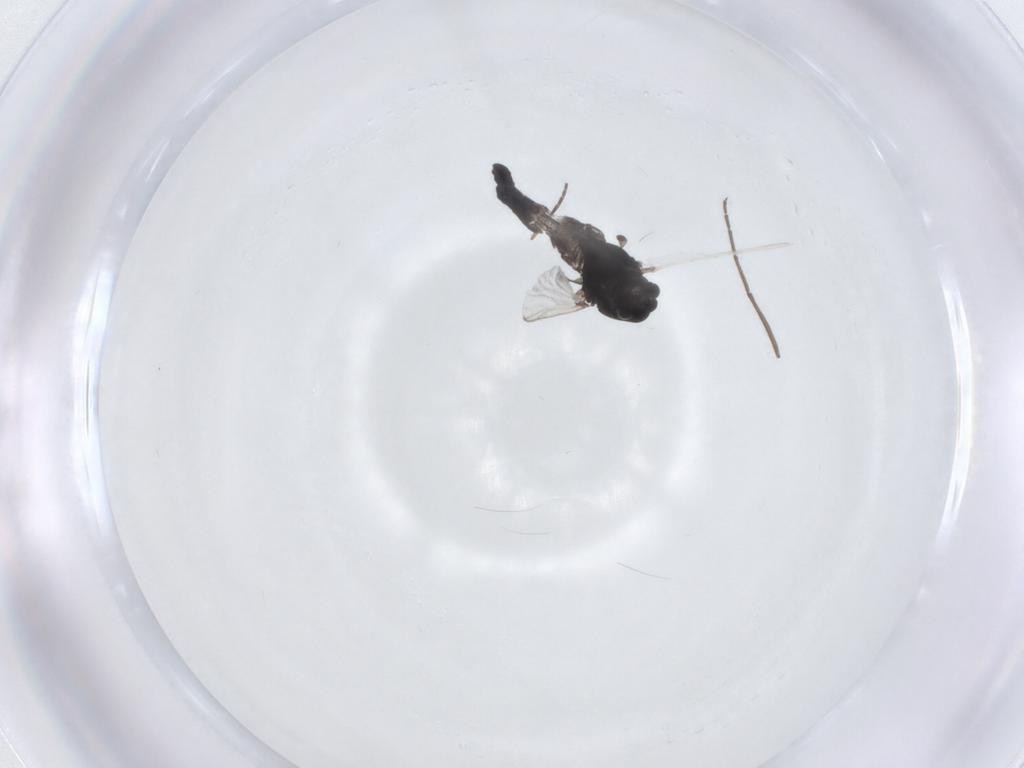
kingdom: Animalia
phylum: Arthropoda
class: Insecta
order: Diptera
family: Chironomidae
